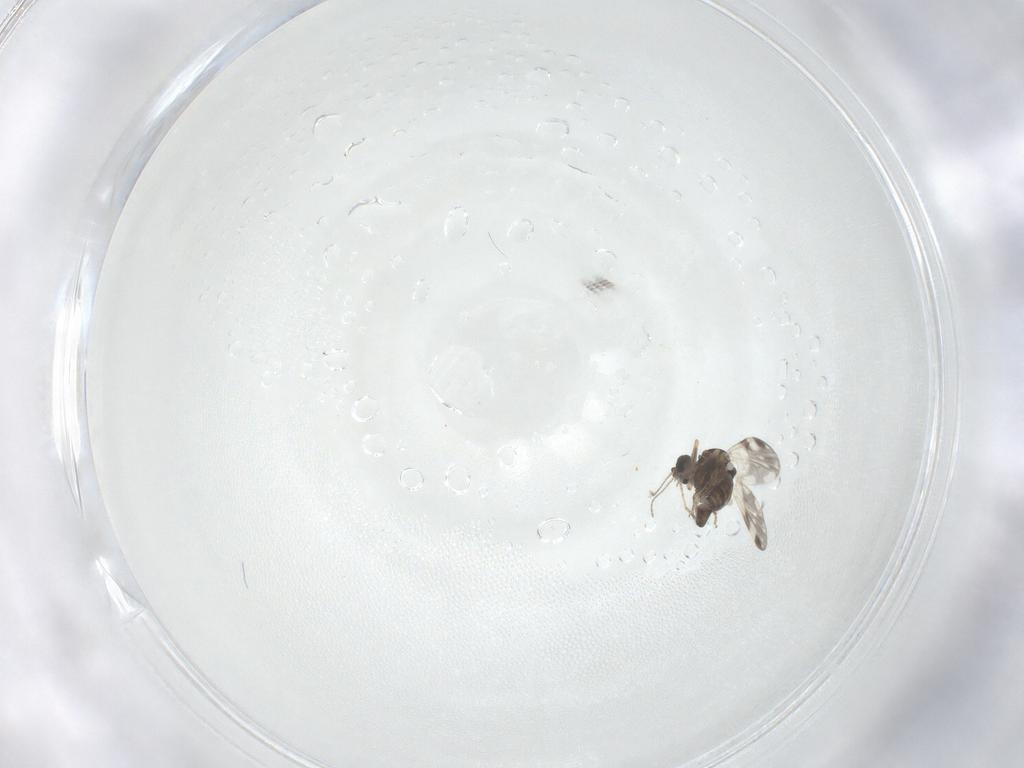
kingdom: Animalia
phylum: Arthropoda
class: Insecta
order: Diptera
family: Ceratopogonidae
